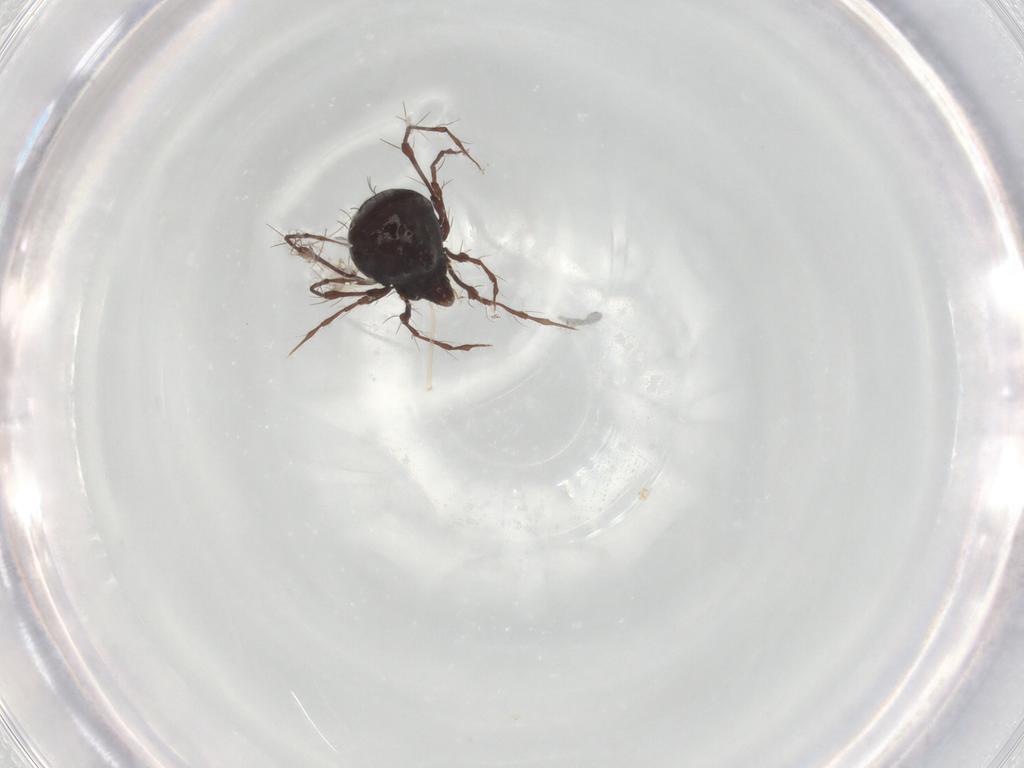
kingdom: Animalia
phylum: Arthropoda
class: Arachnida
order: Sarcoptiformes
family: Damaeidae
